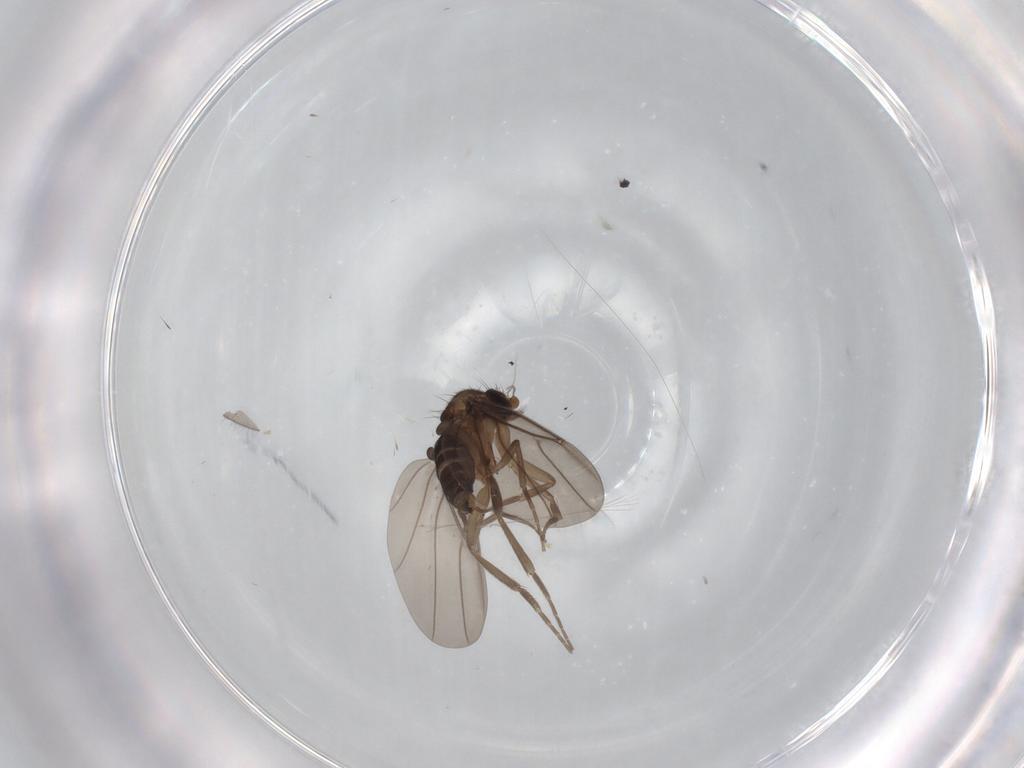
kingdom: Animalia
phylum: Arthropoda
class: Insecta
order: Diptera
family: Phoridae
